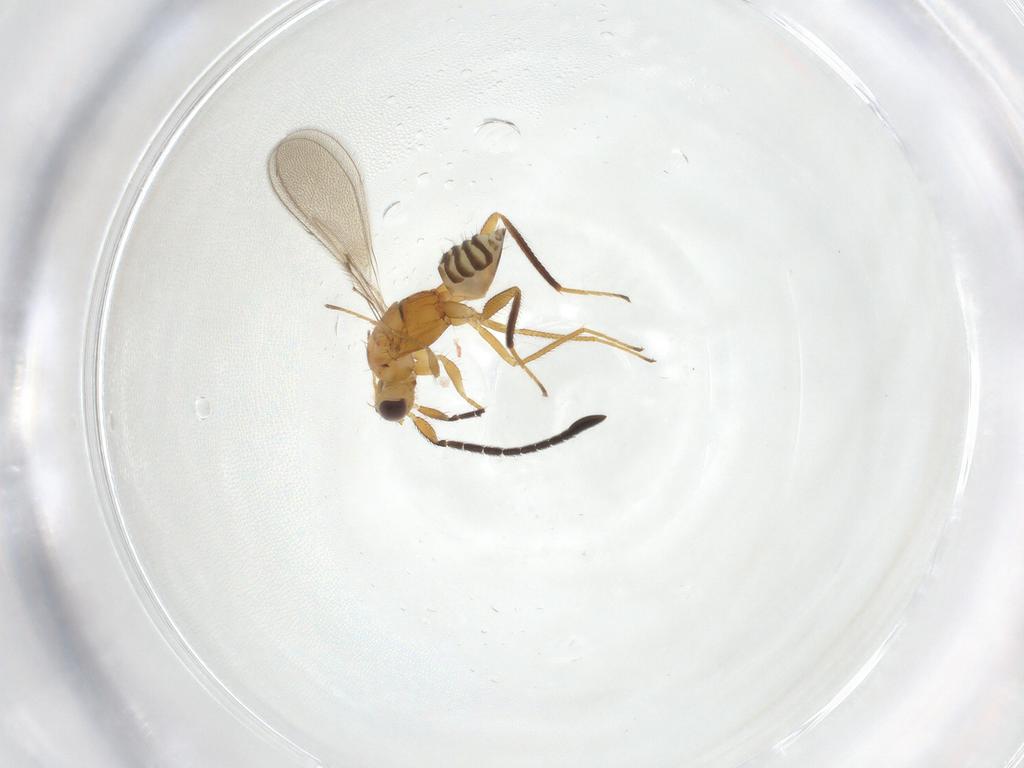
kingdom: Animalia
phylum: Arthropoda
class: Insecta
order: Hymenoptera
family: Mymaridae
